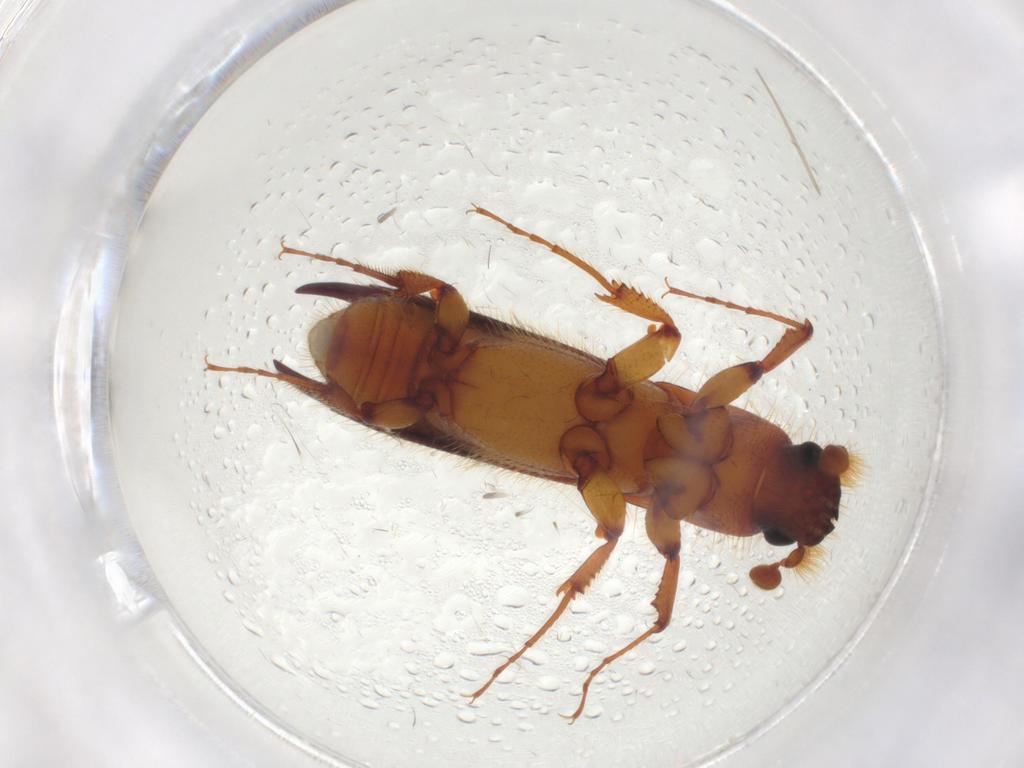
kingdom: Animalia
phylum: Arthropoda
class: Insecta
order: Coleoptera
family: Curculionidae
